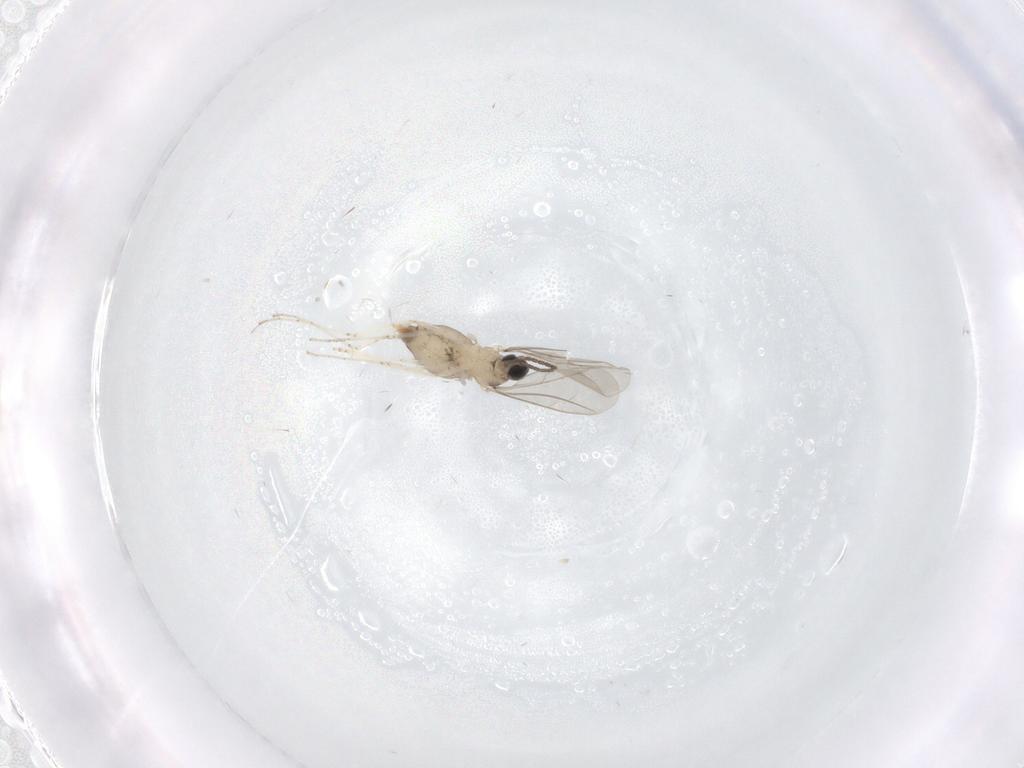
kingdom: Animalia
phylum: Arthropoda
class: Insecta
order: Diptera
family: Cecidomyiidae
